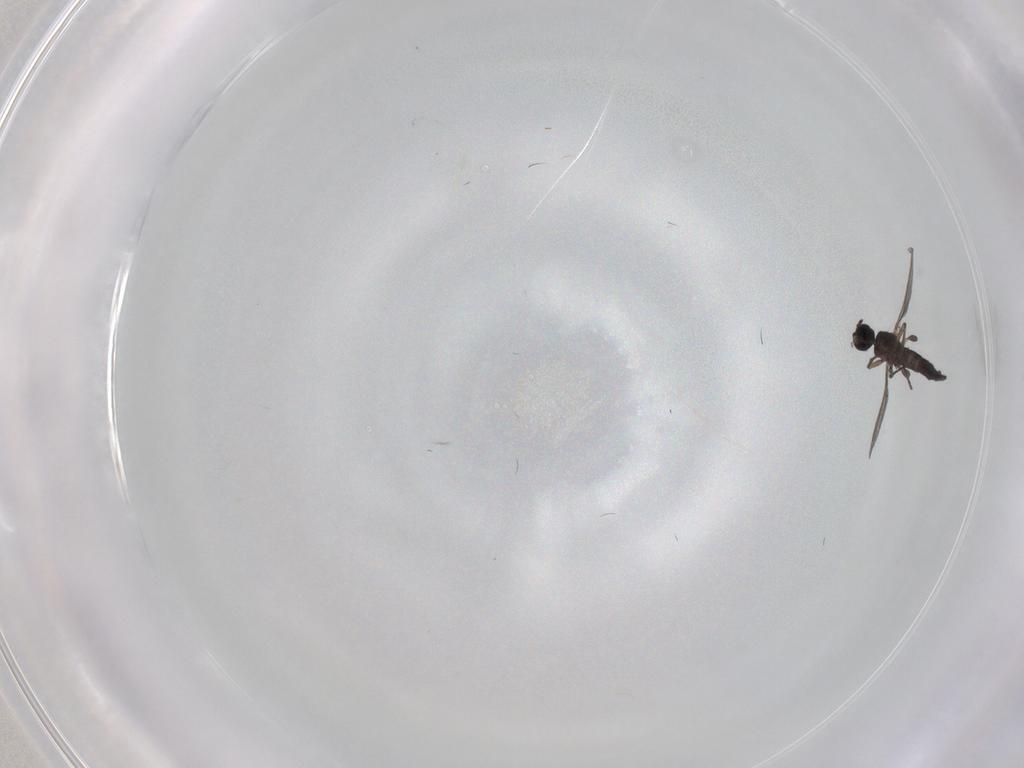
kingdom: Animalia
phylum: Arthropoda
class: Insecta
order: Diptera
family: Sciaridae
